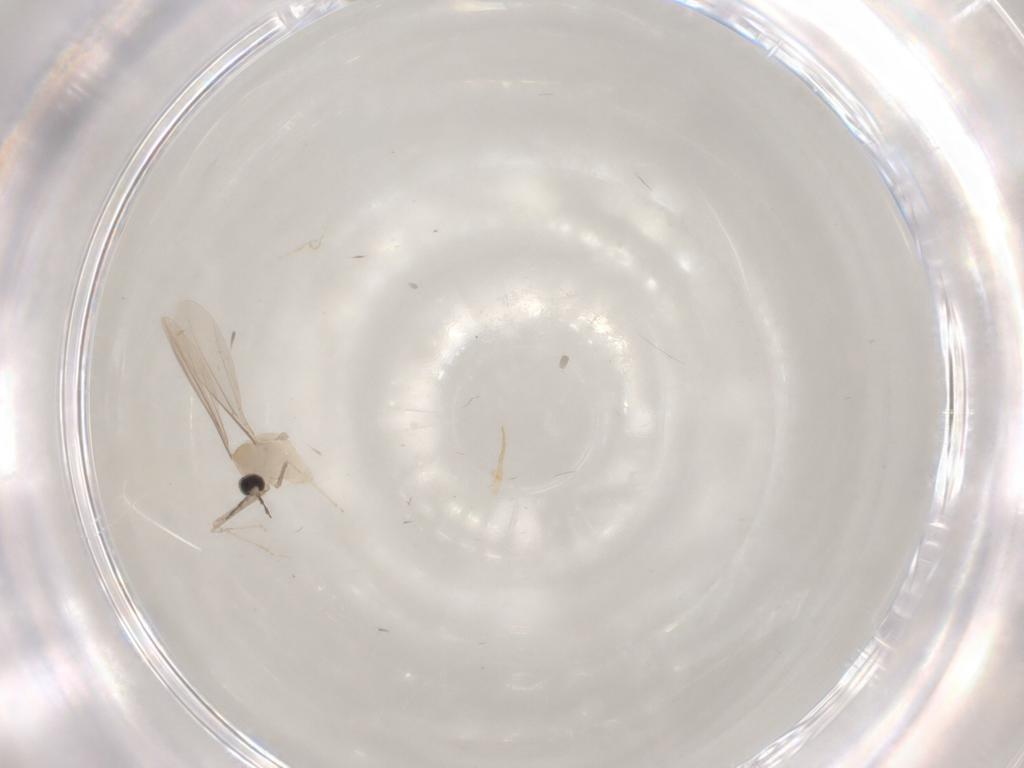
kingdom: Animalia
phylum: Arthropoda
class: Insecta
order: Diptera
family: Cecidomyiidae
